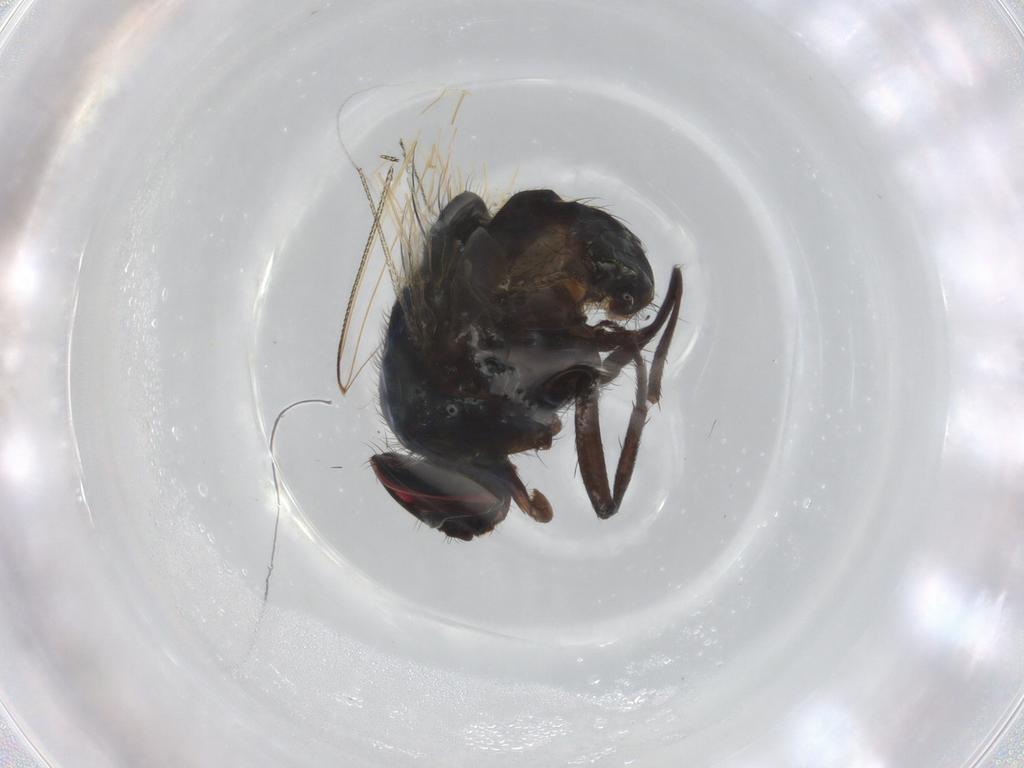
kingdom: Animalia
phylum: Arthropoda
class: Insecta
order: Diptera
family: Muscidae
